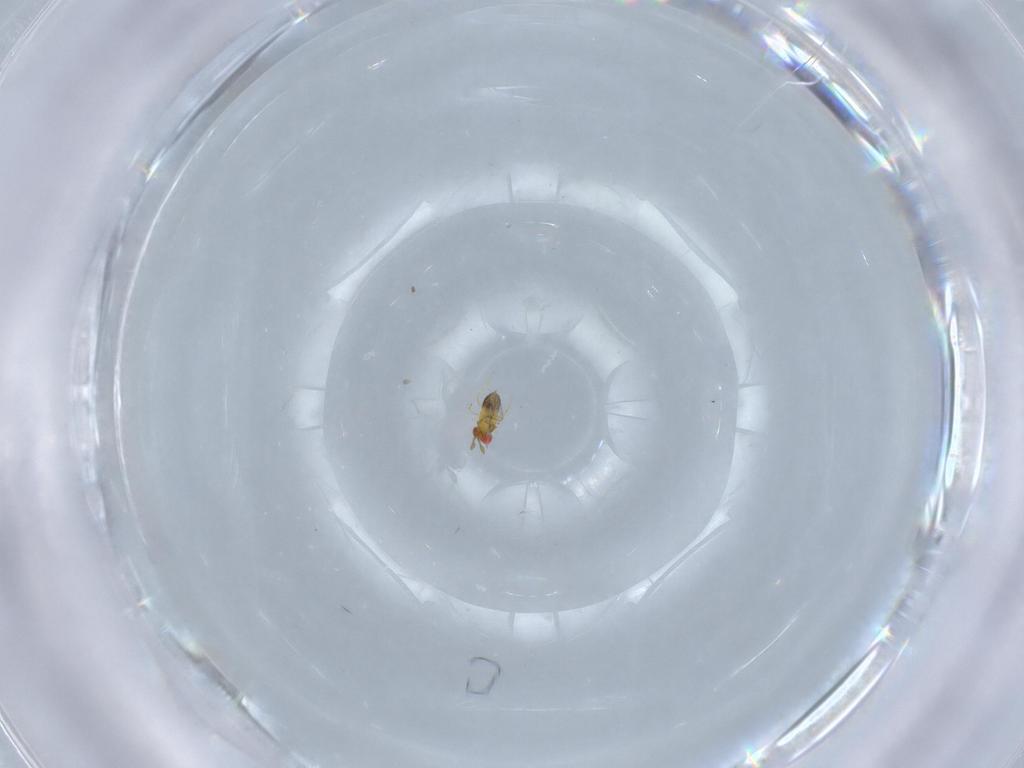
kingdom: Animalia
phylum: Arthropoda
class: Insecta
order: Hymenoptera
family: Trichogrammatidae
